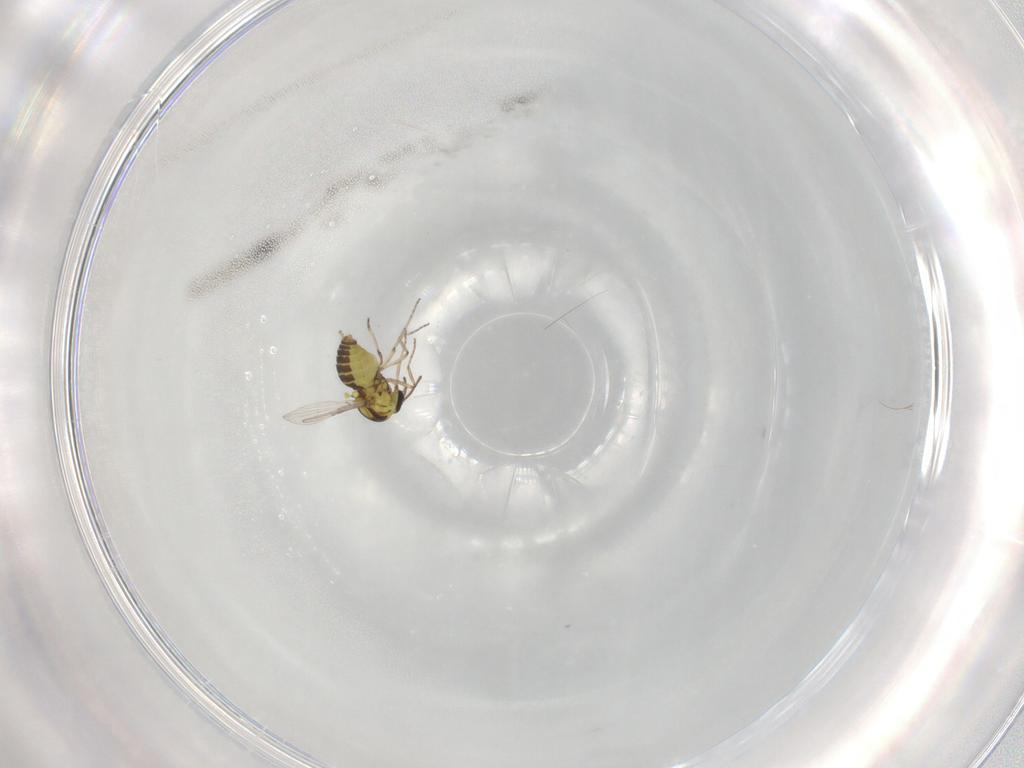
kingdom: Animalia
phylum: Arthropoda
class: Insecta
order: Diptera
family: Ceratopogonidae
